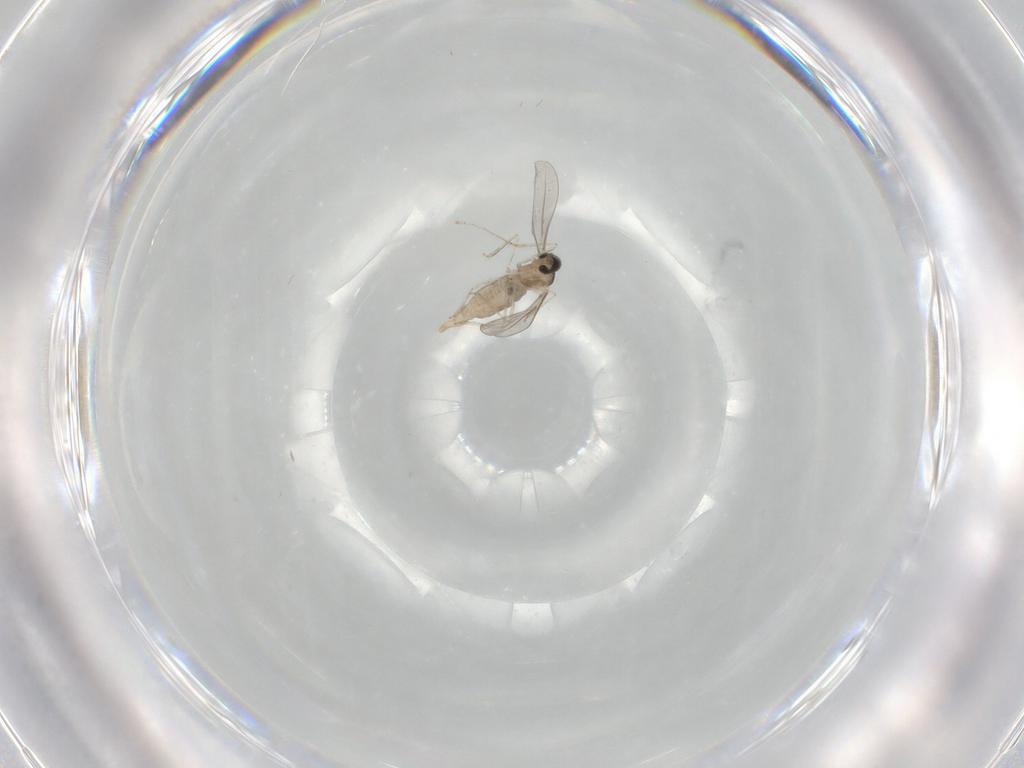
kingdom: Animalia
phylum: Arthropoda
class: Insecta
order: Diptera
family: Cecidomyiidae
